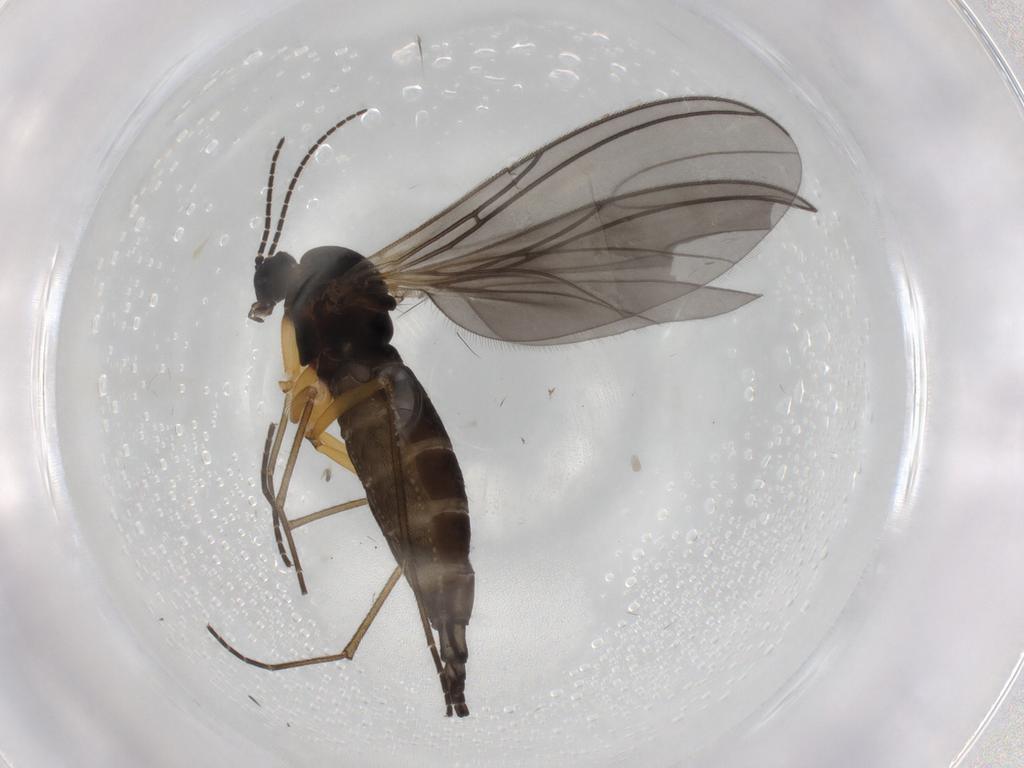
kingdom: Animalia
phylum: Arthropoda
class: Insecta
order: Diptera
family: Sciaridae
